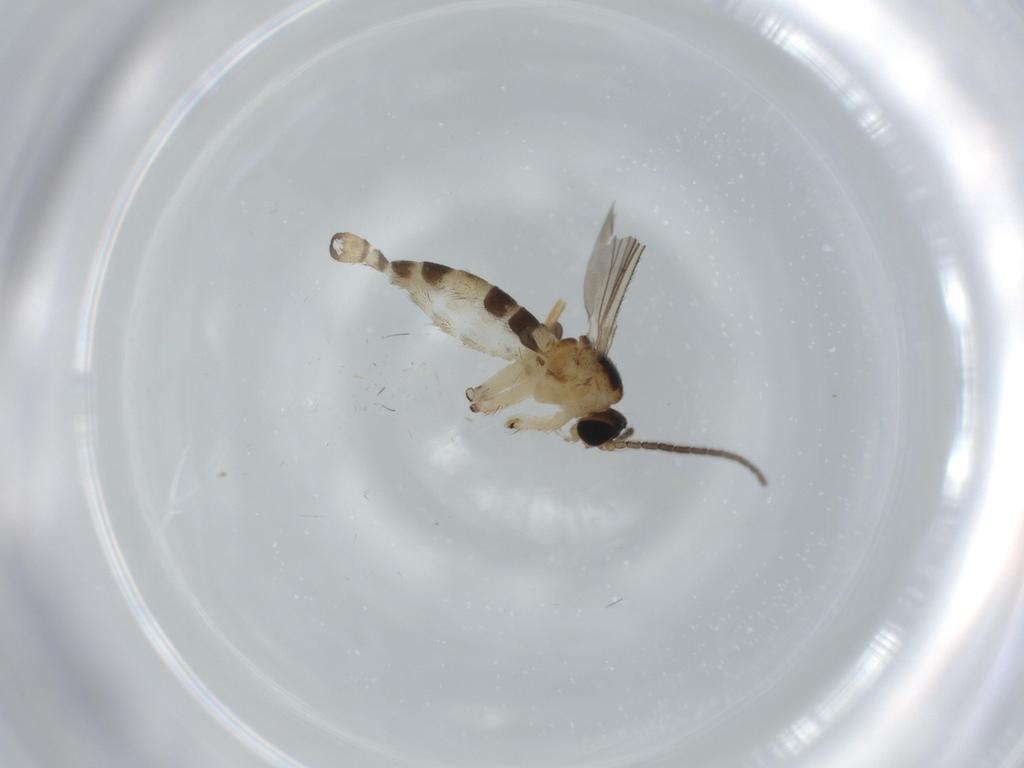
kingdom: Animalia
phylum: Arthropoda
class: Insecta
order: Diptera
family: Sciaridae
